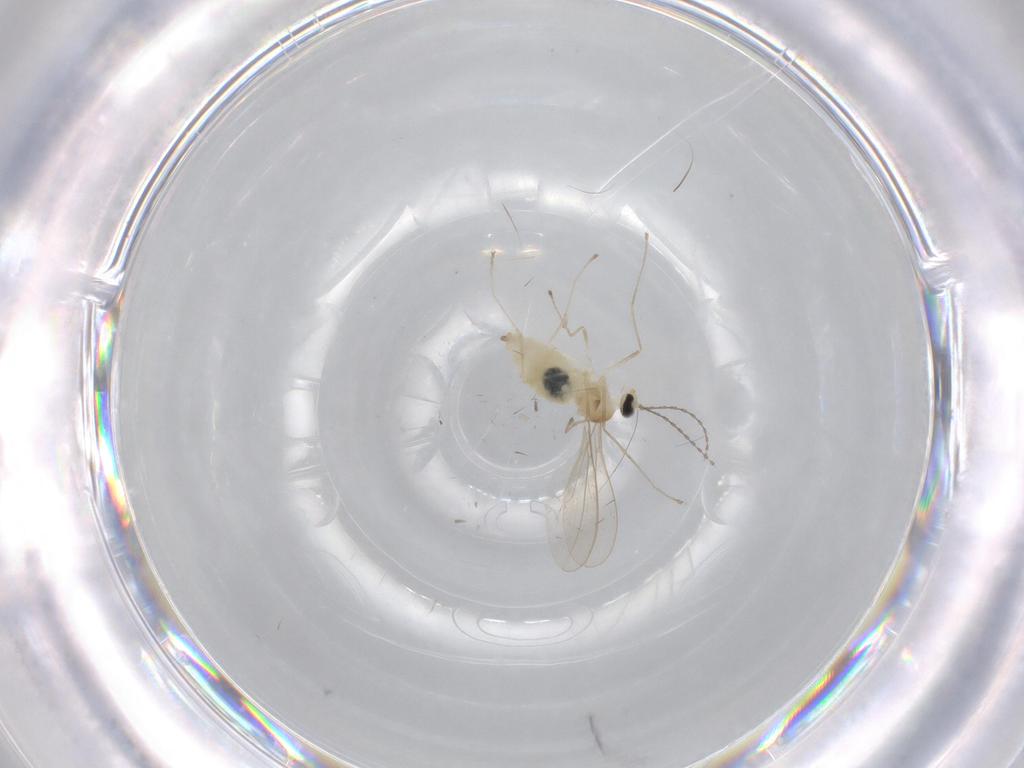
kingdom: Animalia
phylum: Arthropoda
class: Insecta
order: Diptera
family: Cecidomyiidae
